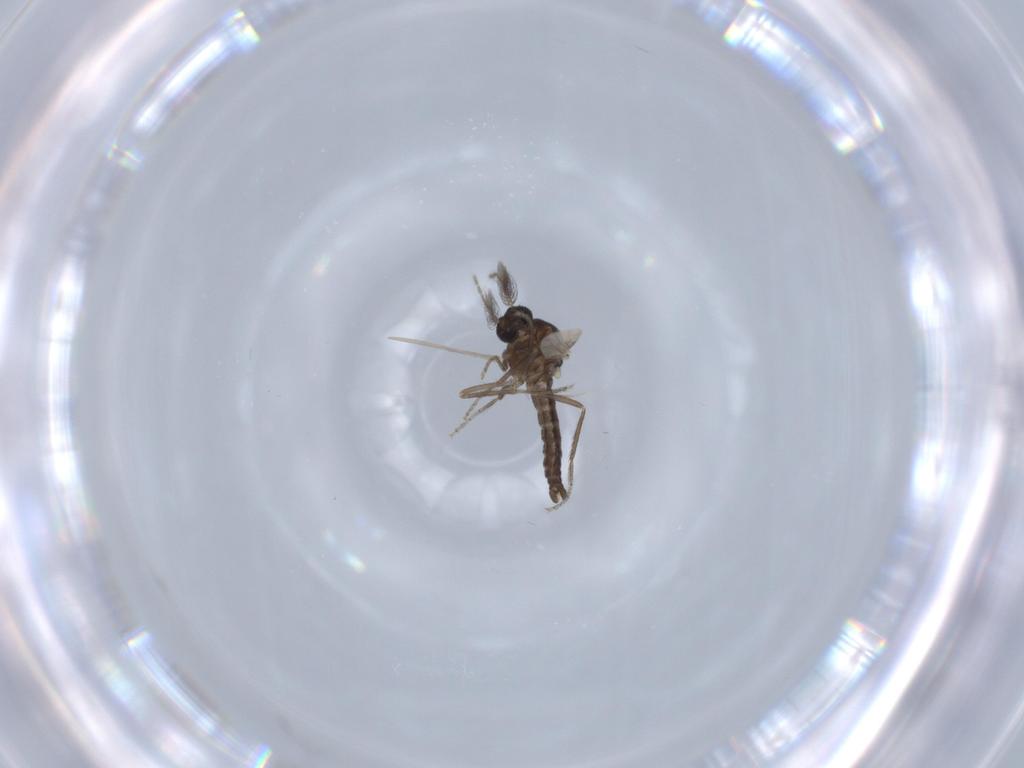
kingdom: Animalia
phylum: Arthropoda
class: Insecta
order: Diptera
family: Ceratopogonidae
